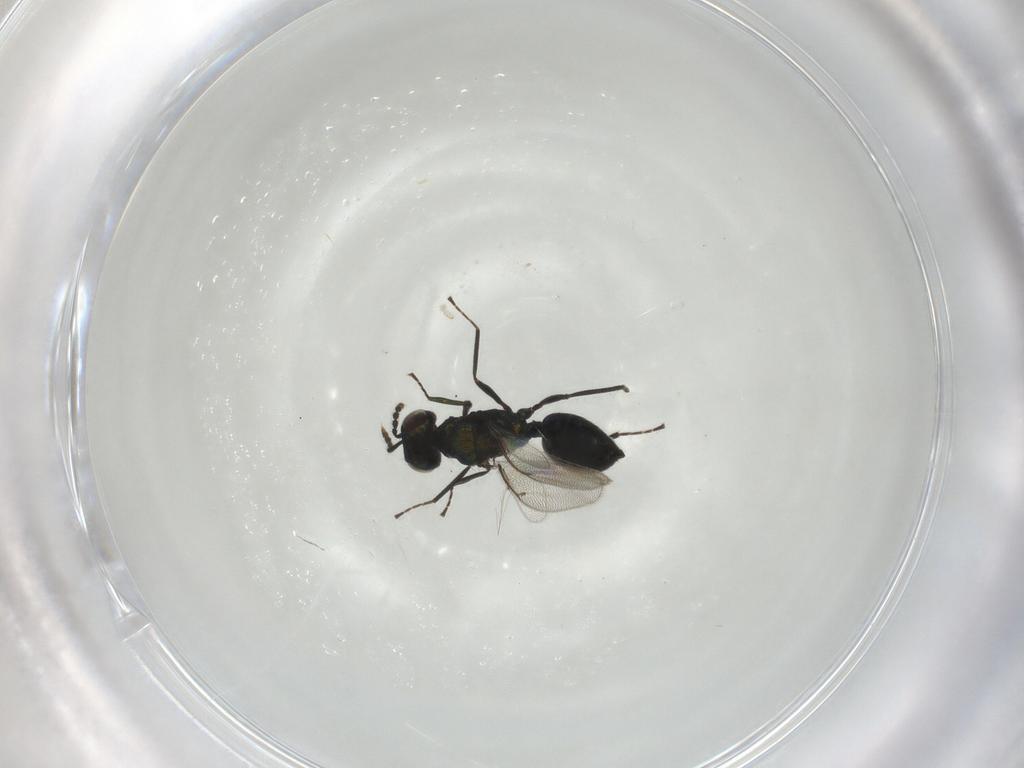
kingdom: Animalia
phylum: Arthropoda
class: Insecta
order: Hymenoptera
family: Eulophidae
